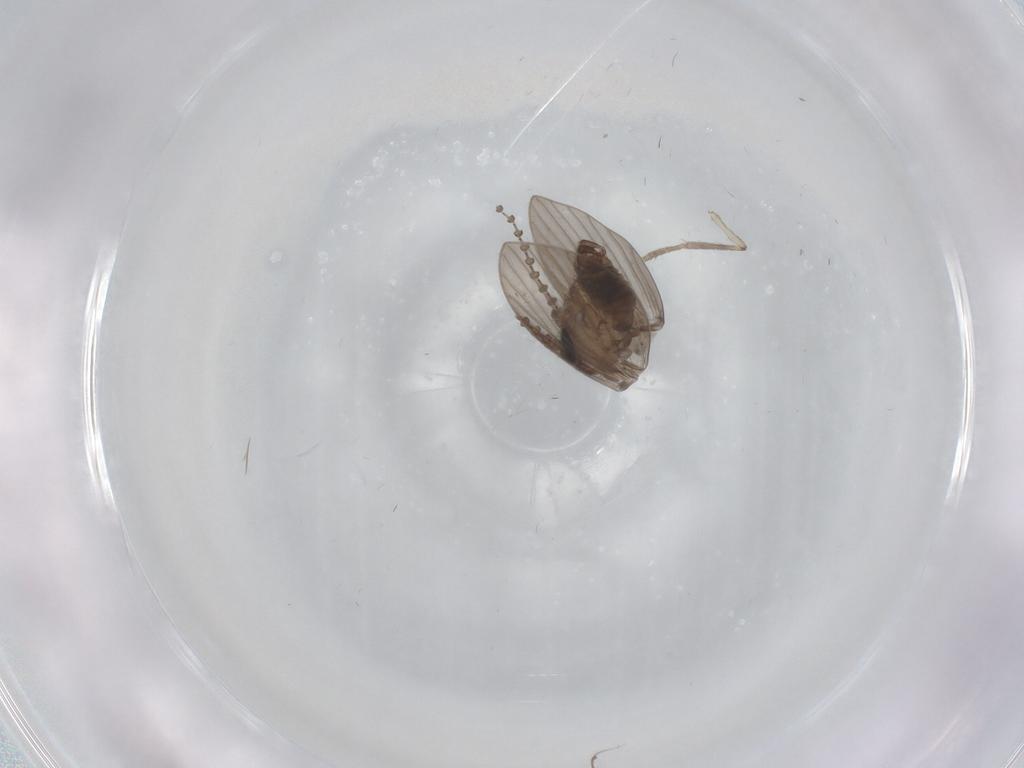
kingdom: Animalia
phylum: Arthropoda
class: Insecta
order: Diptera
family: Psychodidae
